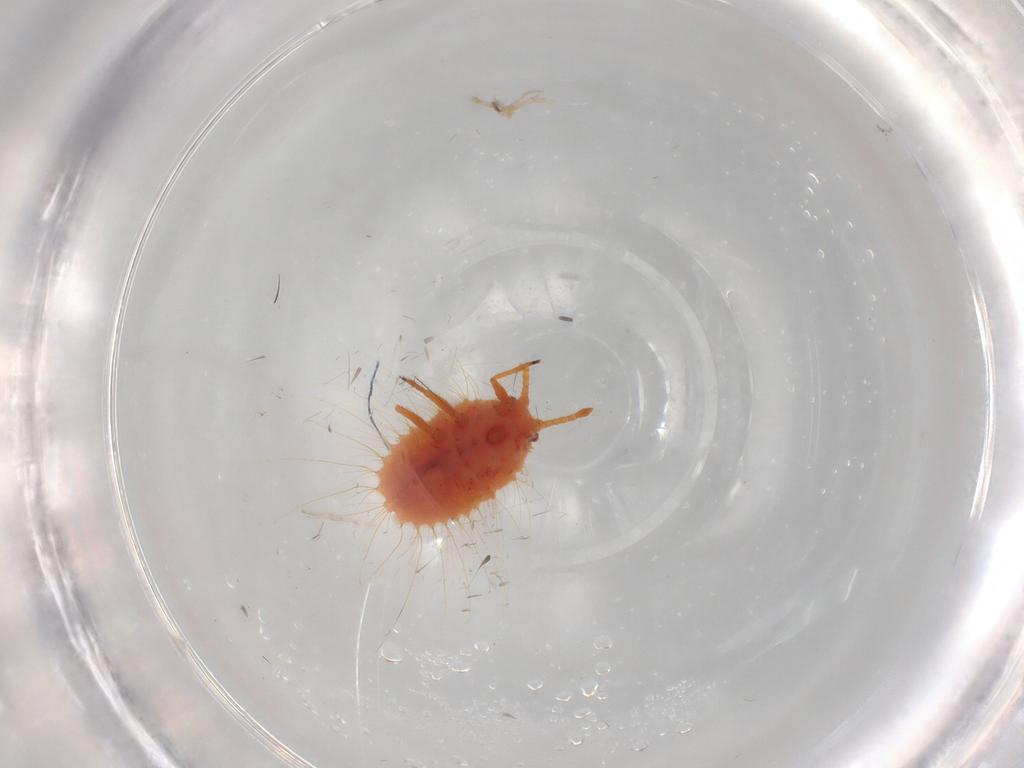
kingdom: Animalia
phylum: Arthropoda
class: Insecta
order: Hemiptera
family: Coccoidea_incertae_sedis
